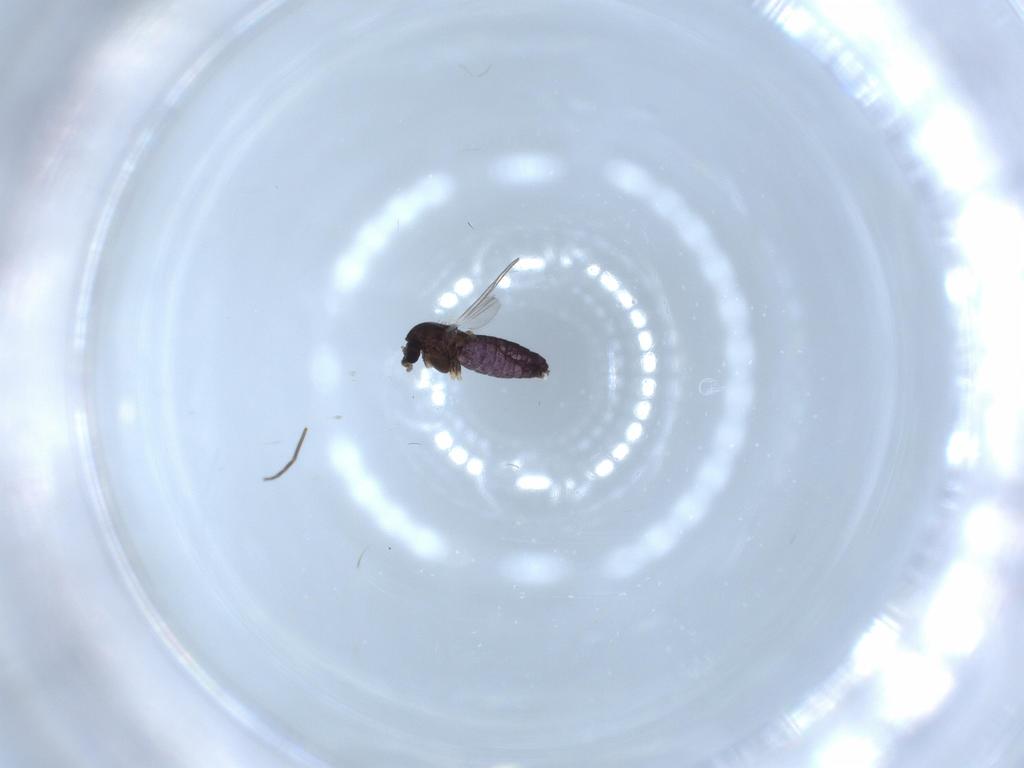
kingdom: Animalia
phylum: Arthropoda
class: Insecta
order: Diptera
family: Chironomidae
